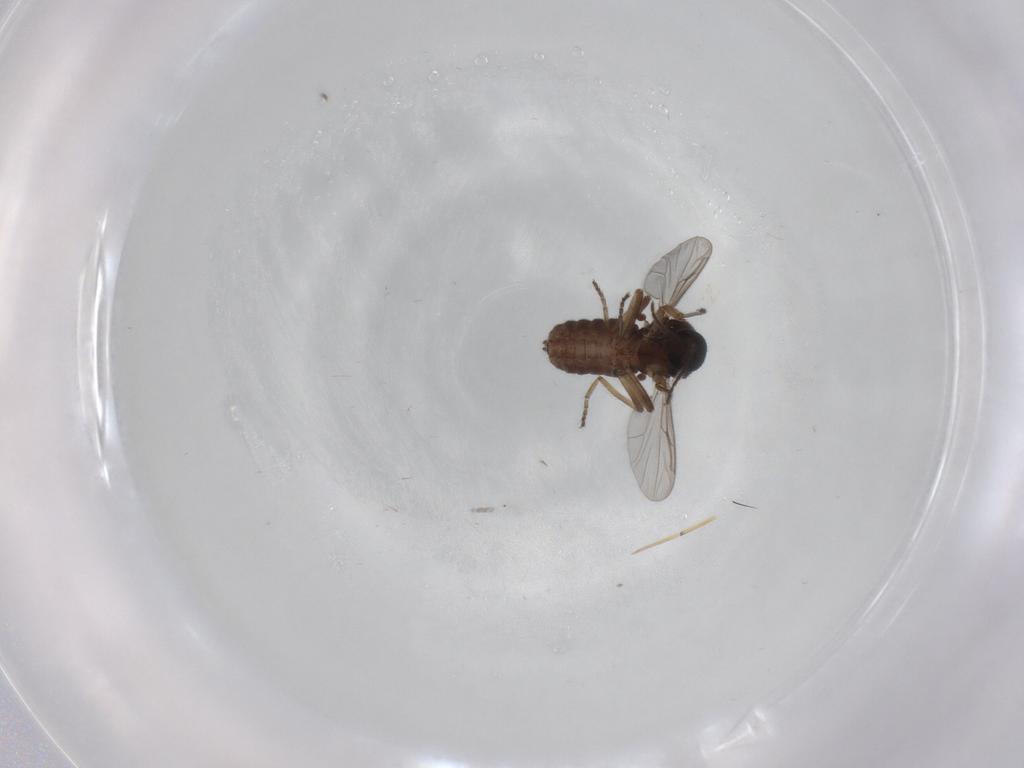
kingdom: Animalia
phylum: Arthropoda
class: Insecta
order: Diptera
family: Ceratopogonidae
